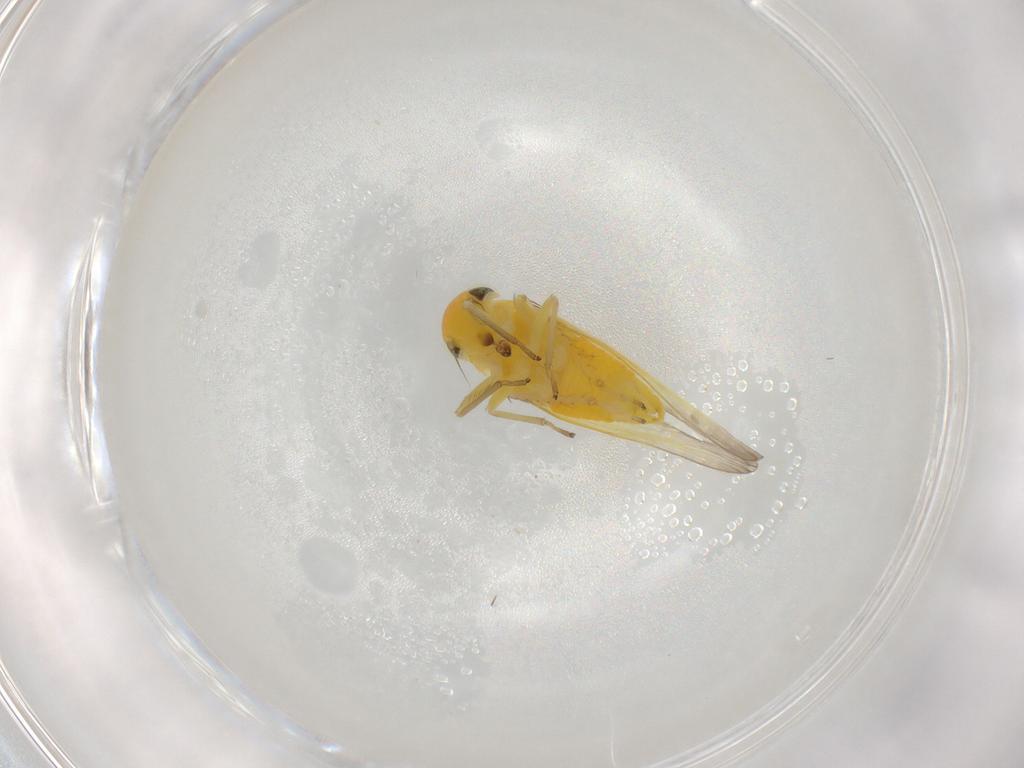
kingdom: Animalia
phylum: Arthropoda
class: Insecta
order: Hemiptera
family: Cicadellidae
